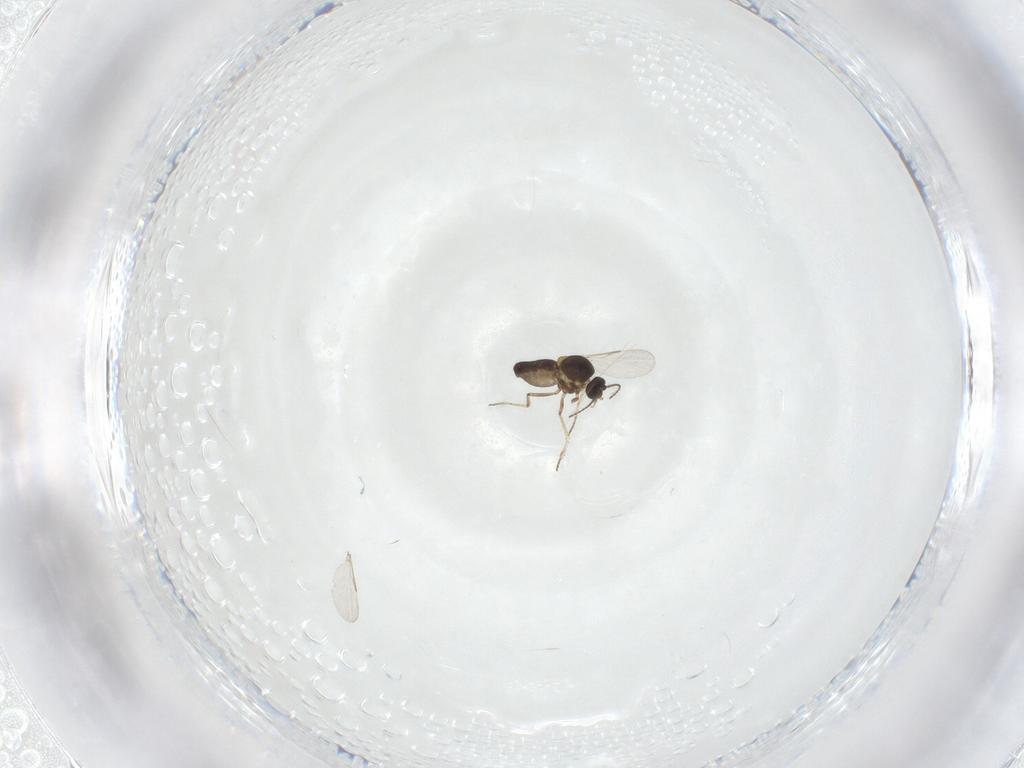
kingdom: Animalia
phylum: Arthropoda
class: Insecta
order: Diptera
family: Ceratopogonidae
